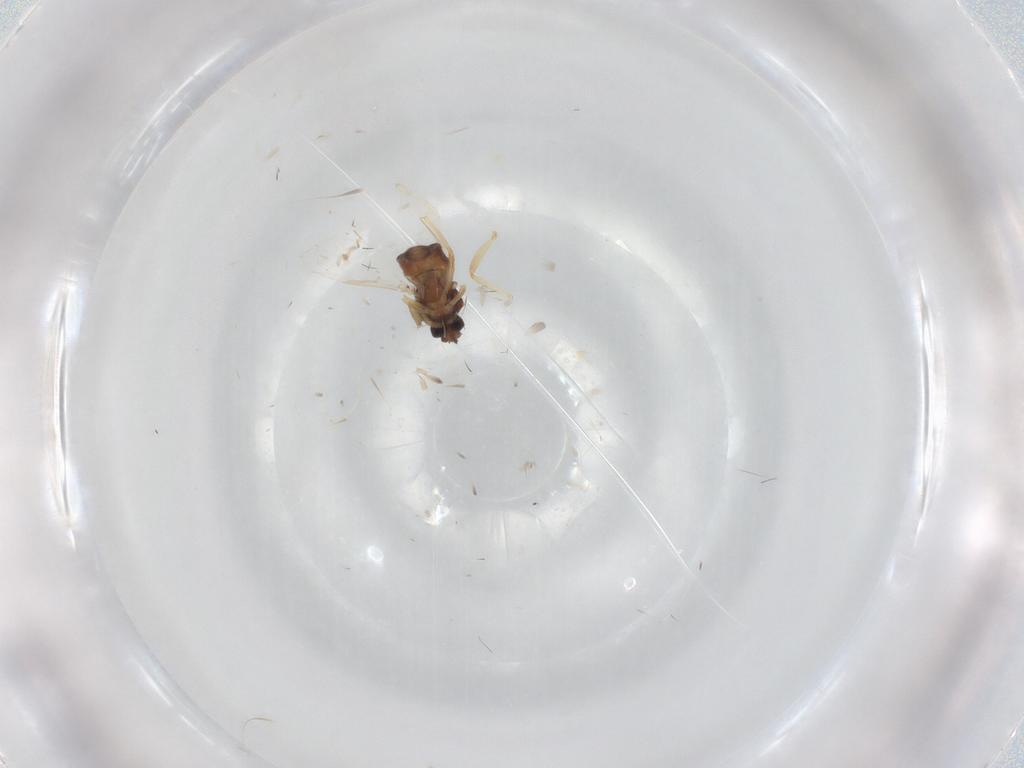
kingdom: Animalia
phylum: Arthropoda
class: Insecta
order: Diptera
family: Ceratopogonidae
